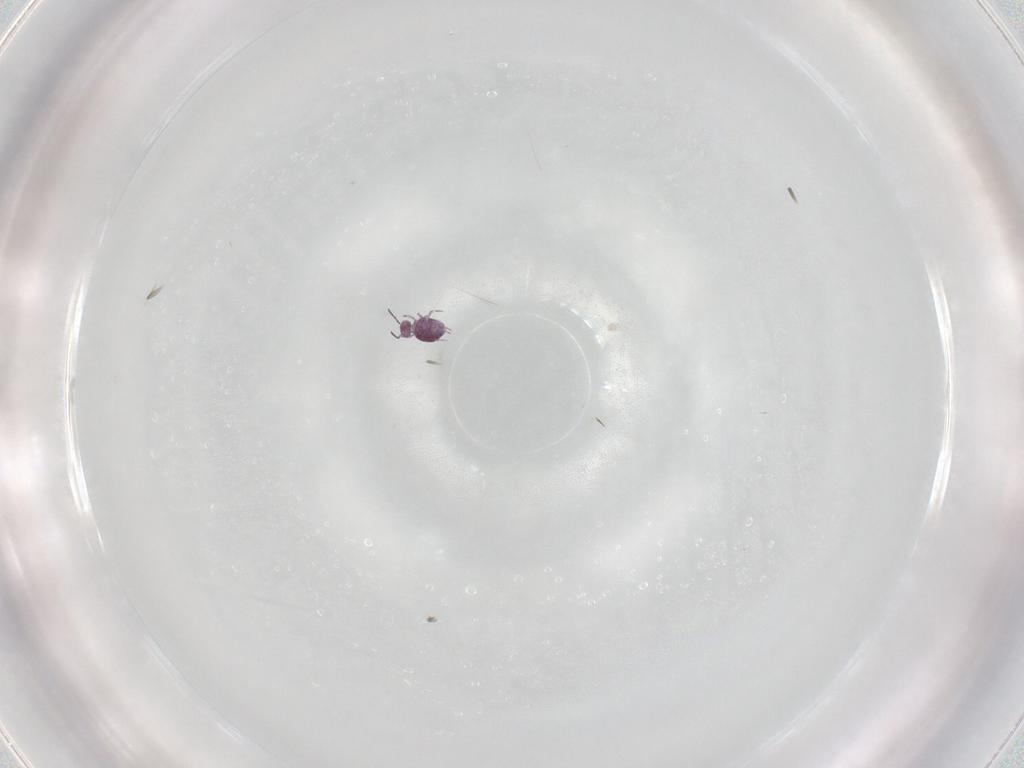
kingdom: Animalia
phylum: Arthropoda
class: Collembola
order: Symphypleona
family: Sminthurididae
